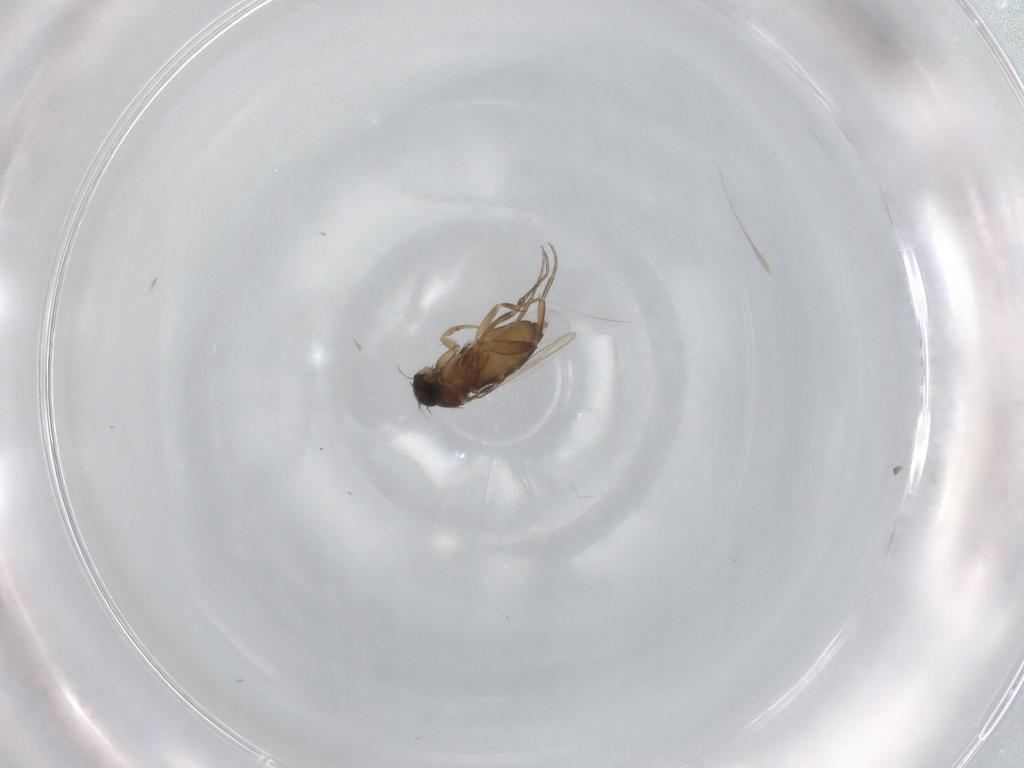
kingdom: Animalia
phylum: Arthropoda
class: Insecta
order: Diptera
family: Phoridae
